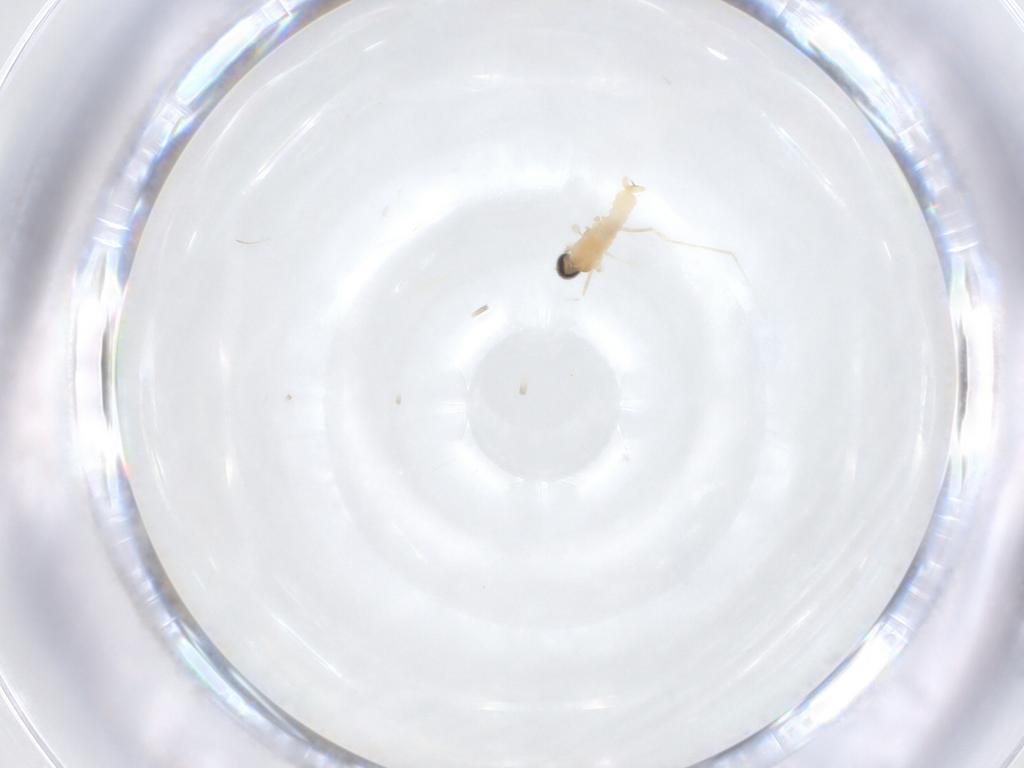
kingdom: Animalia
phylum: Arthropoda
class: Insecta
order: Diptera
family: Cecidomyiidae
